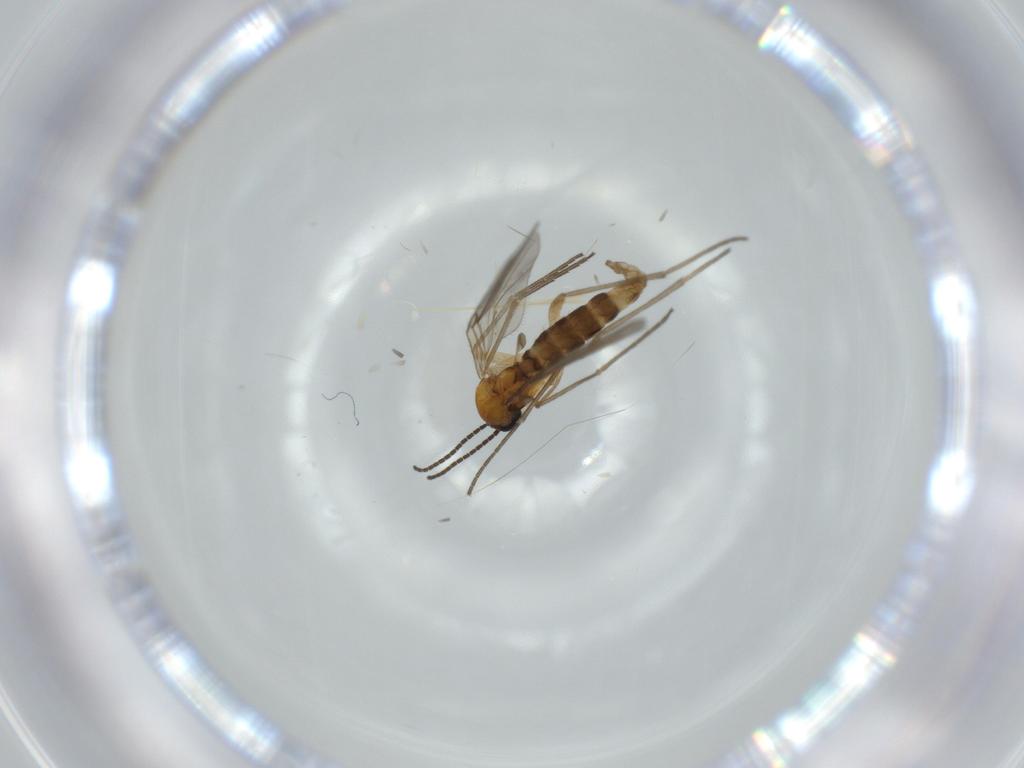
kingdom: Animalia
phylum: Arthropoda
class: Insecta
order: Diptera
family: Sciaridae
